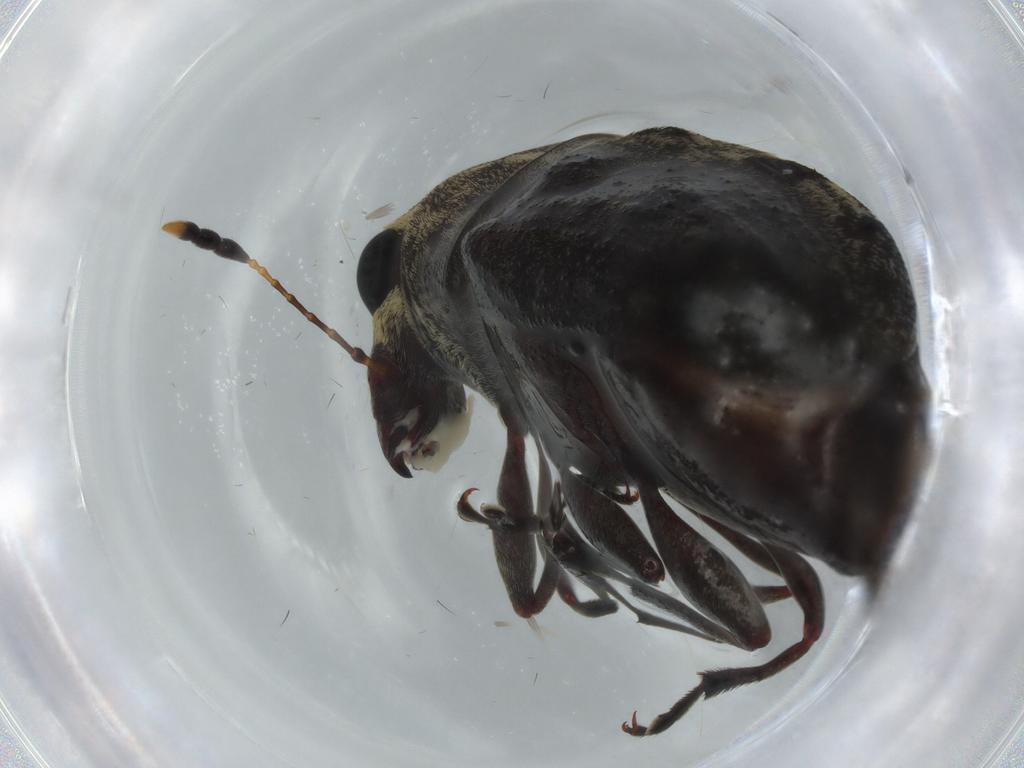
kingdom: Animalia
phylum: Arthropoda
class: Insecta
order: Coleoptera
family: Anthribidae
